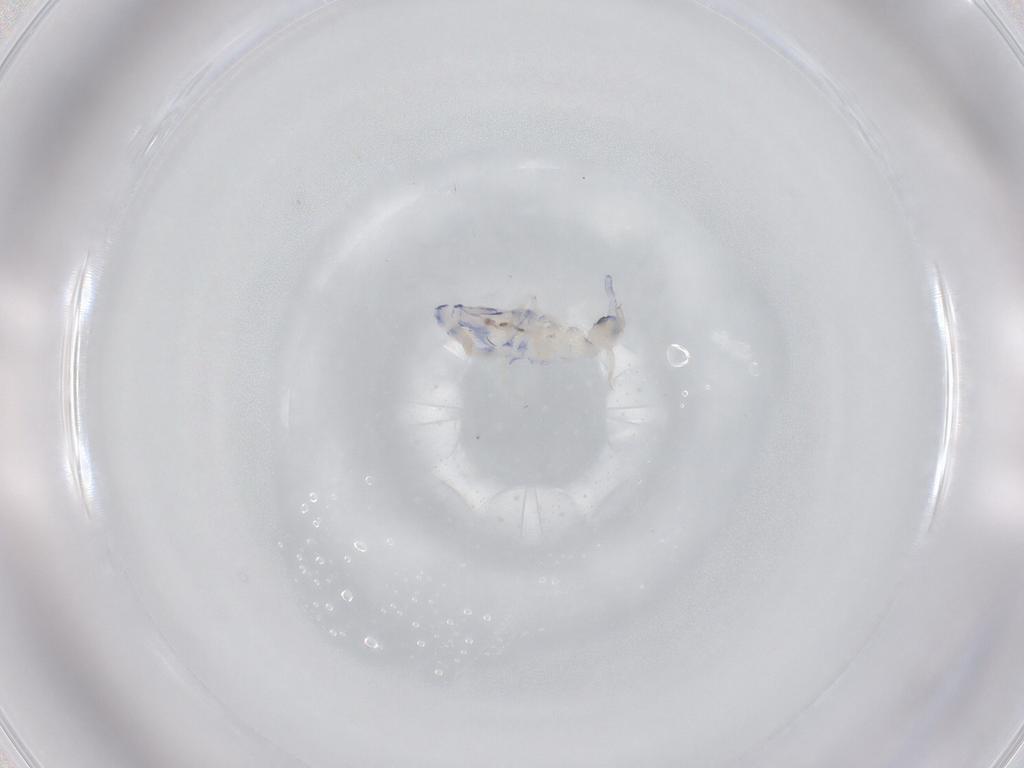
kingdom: Animalia
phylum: Arthropoda
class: Collembola
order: Entomobryomorpha
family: Entomobryidae
